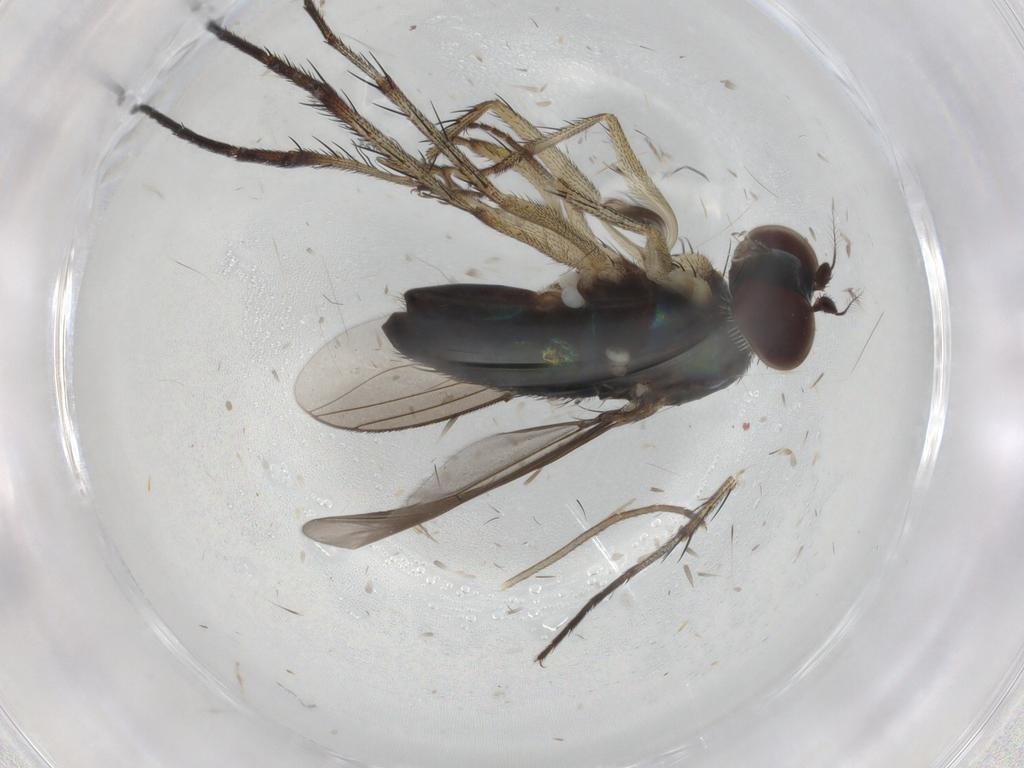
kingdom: Animalia
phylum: Arthropoda
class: Insecta
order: Diptera
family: Dolichopodidae
